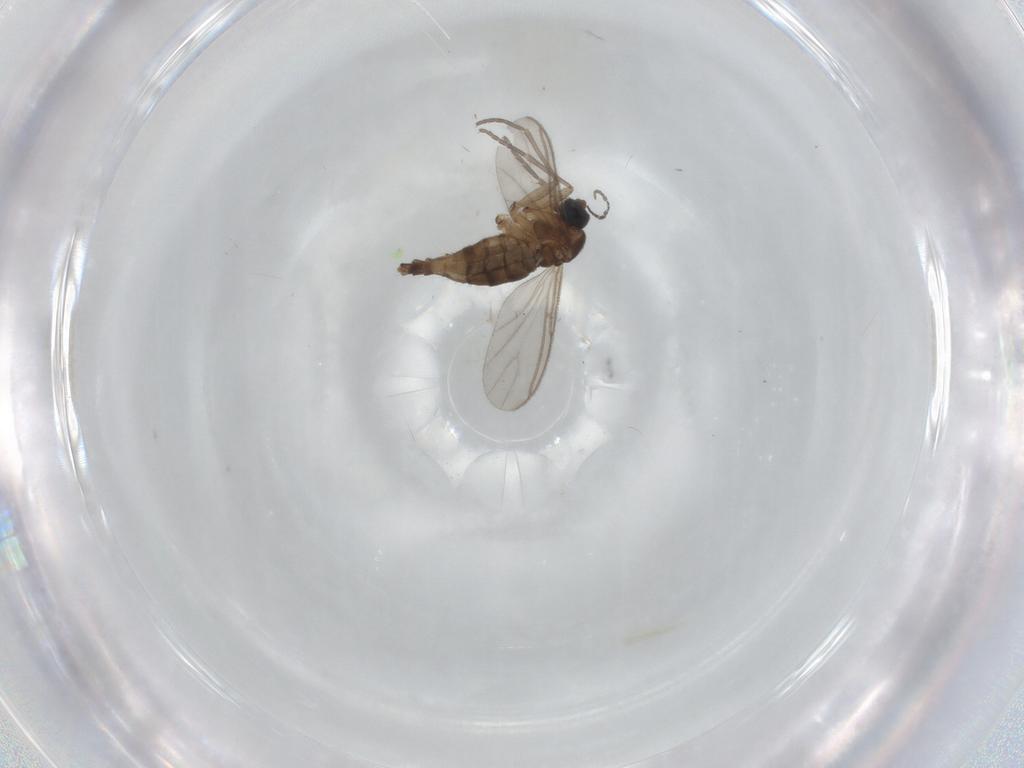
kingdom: Animalia
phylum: Arthropoda
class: Insecta
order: Diptera
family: Sciaridae
